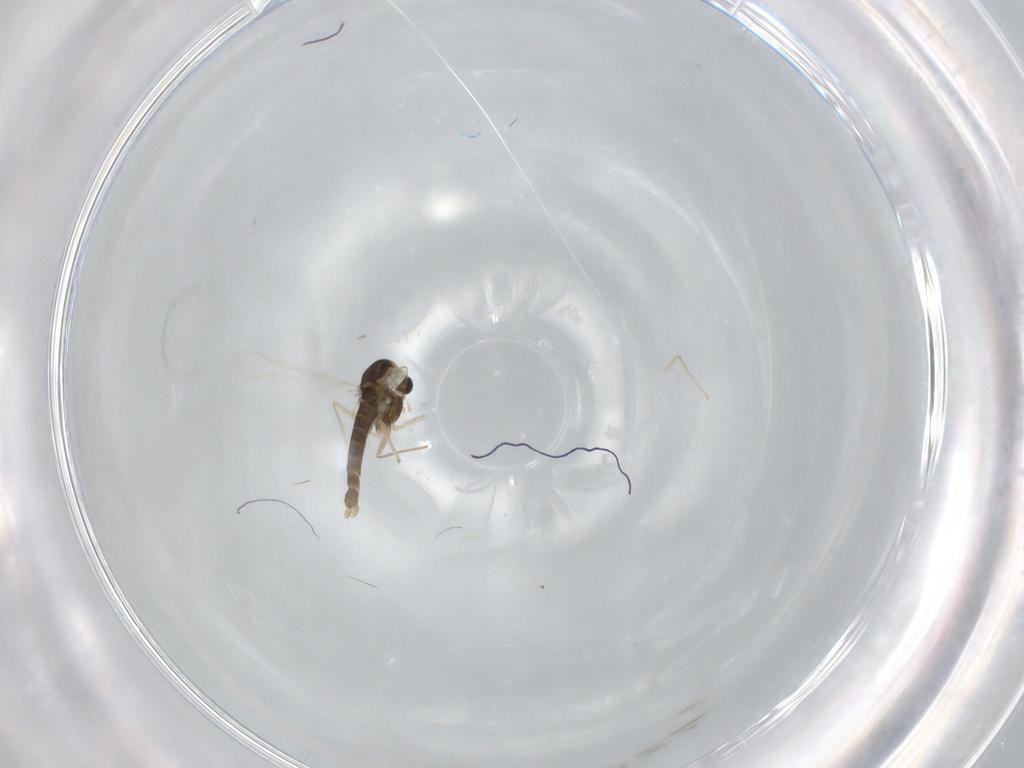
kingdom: Animalia
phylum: Arthropoda
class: Insecta
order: Diptera
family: Chironomidae
